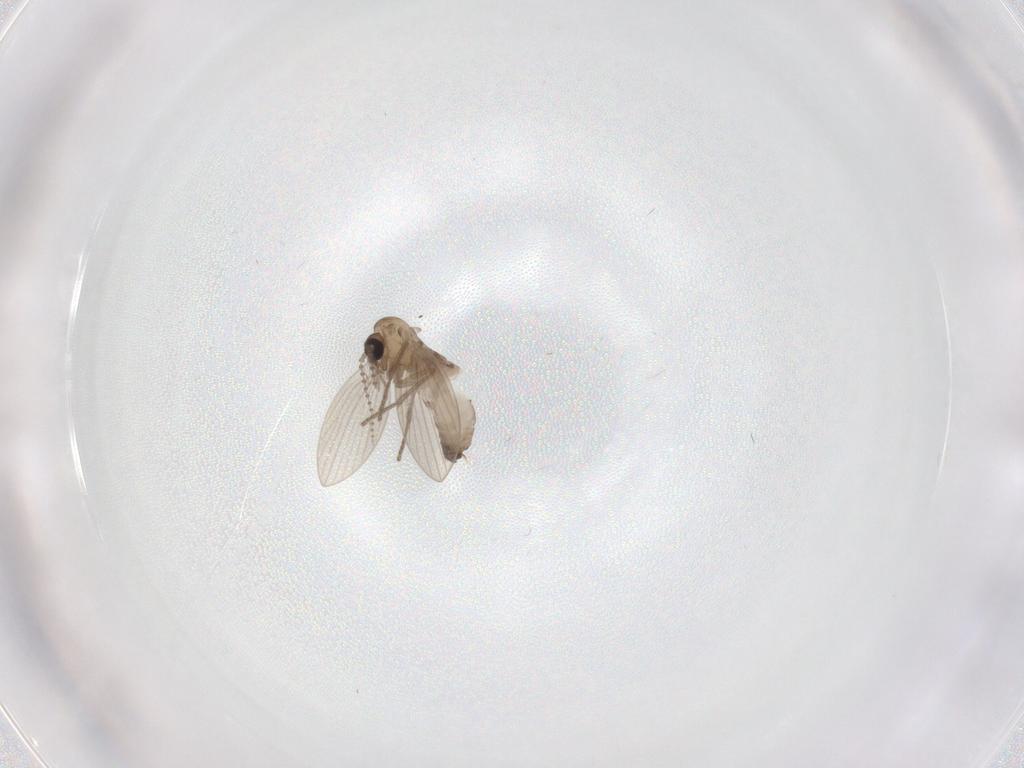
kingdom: Animalia
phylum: Arthropoda
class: Insecta
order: Diptera
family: Psychodidae
